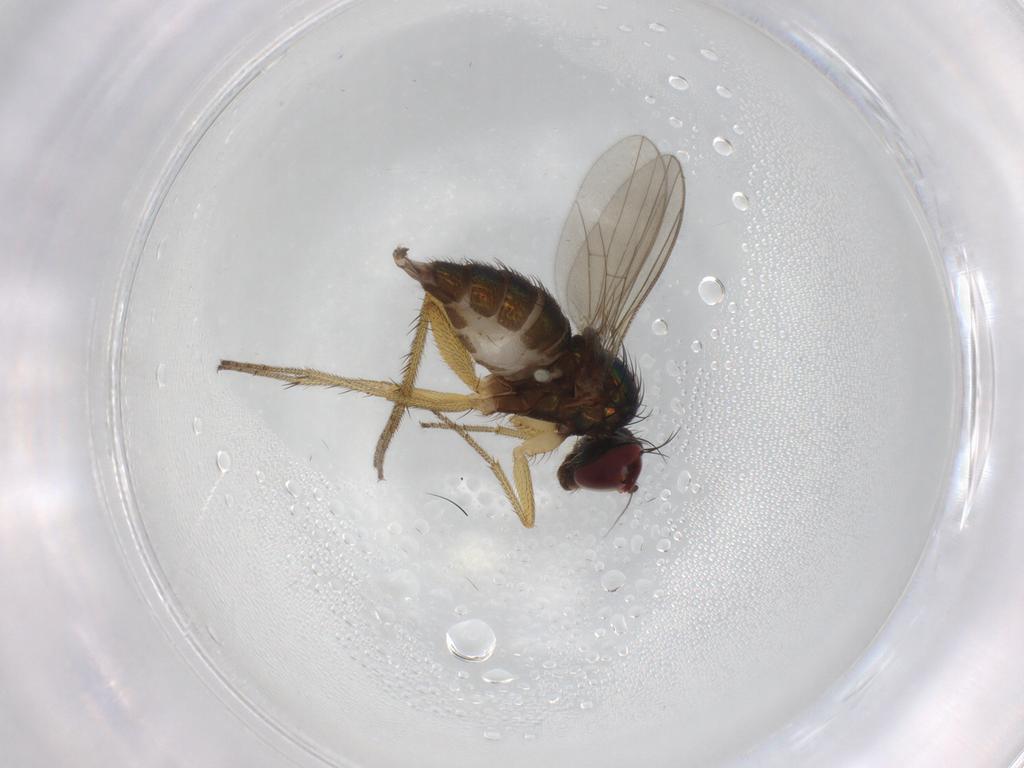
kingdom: Animalia
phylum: Arthropoda
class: Insecta
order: Diptera
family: Dolichopodidae
